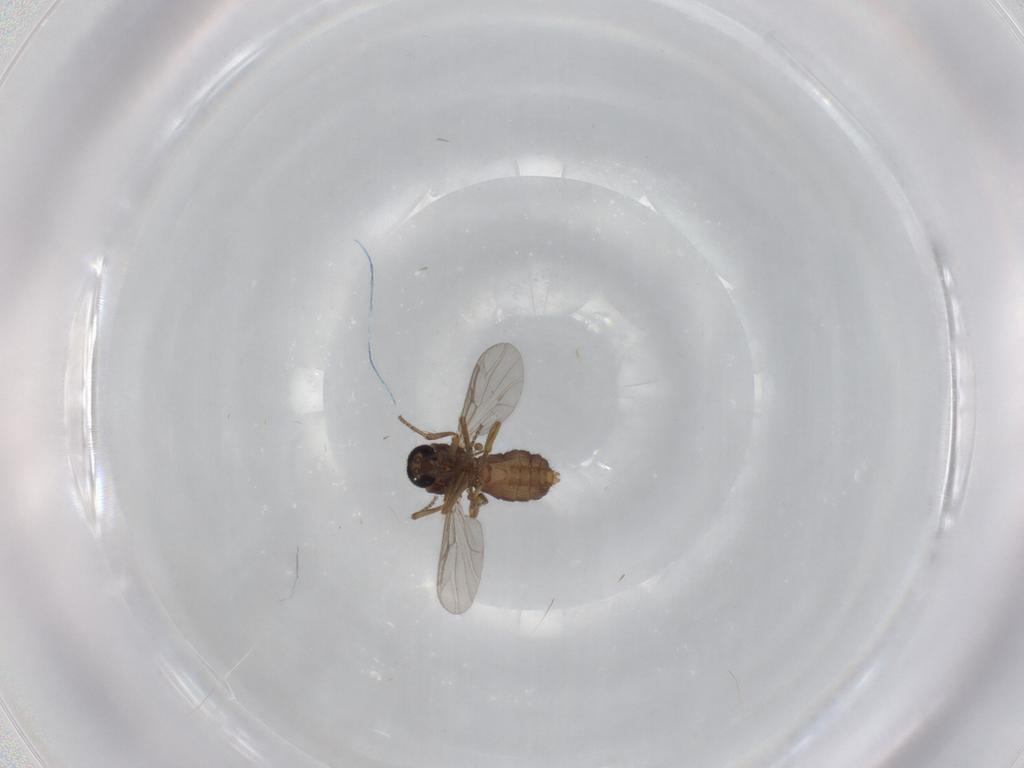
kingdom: Animalia
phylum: Arthropoda
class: Insecta
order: Diptera
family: Ceratopogonidae
